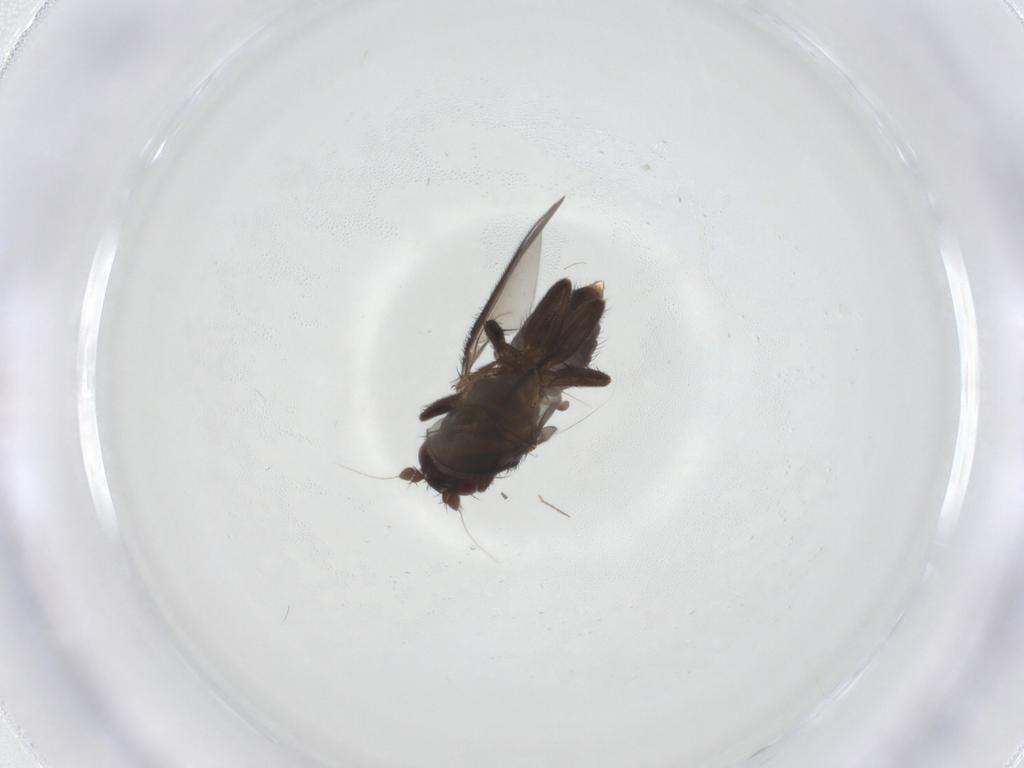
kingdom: Animalia
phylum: Arthropoda
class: Insecta
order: Diptera
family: Sphaeroceridae
